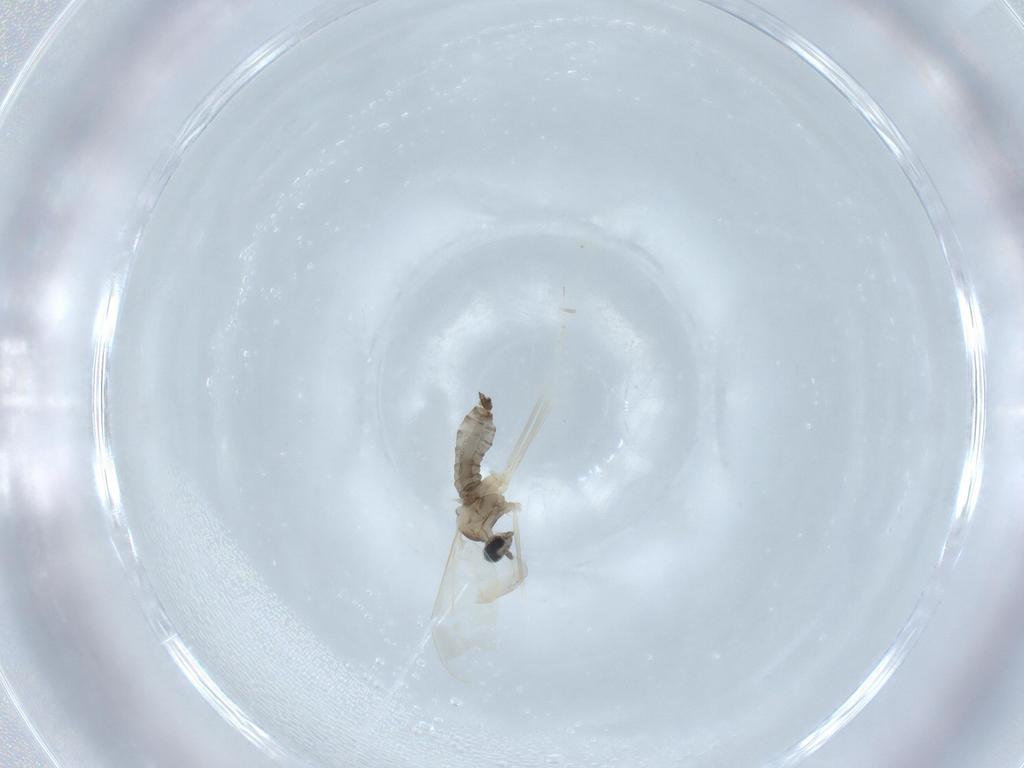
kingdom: Animalia
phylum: Arthropoda
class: Insecta
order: Diptera
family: Cecidomyiidae
